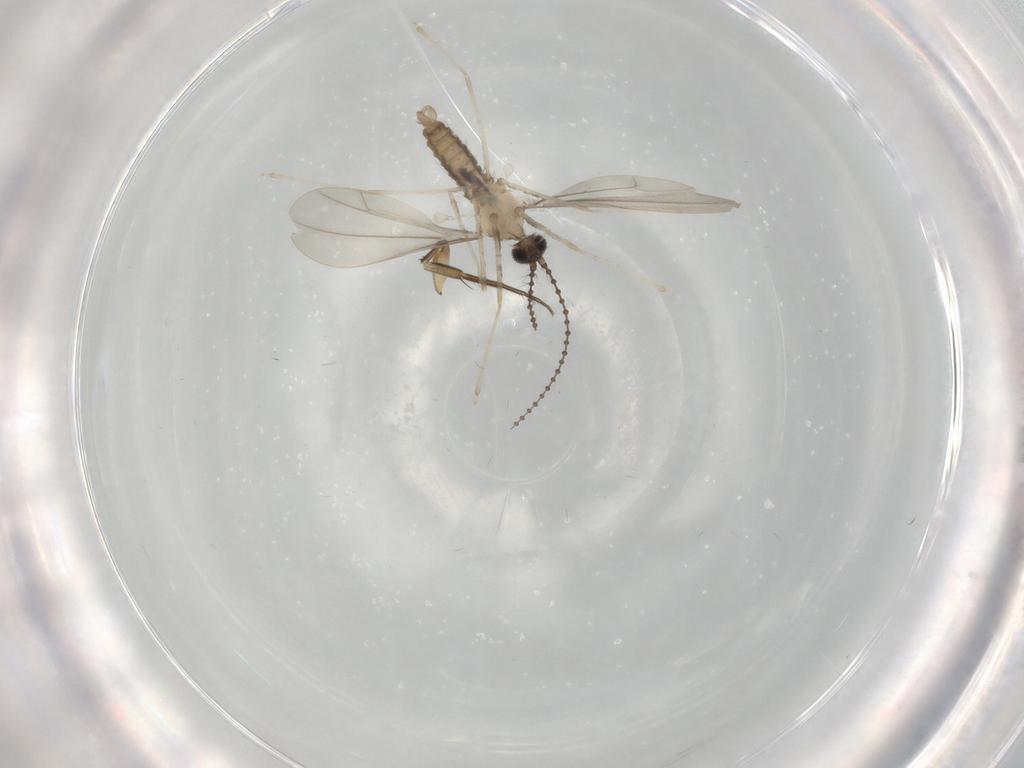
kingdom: Animalia
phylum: Arthropoda
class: Insecta
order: Diptera
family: Cecidomyiidae
